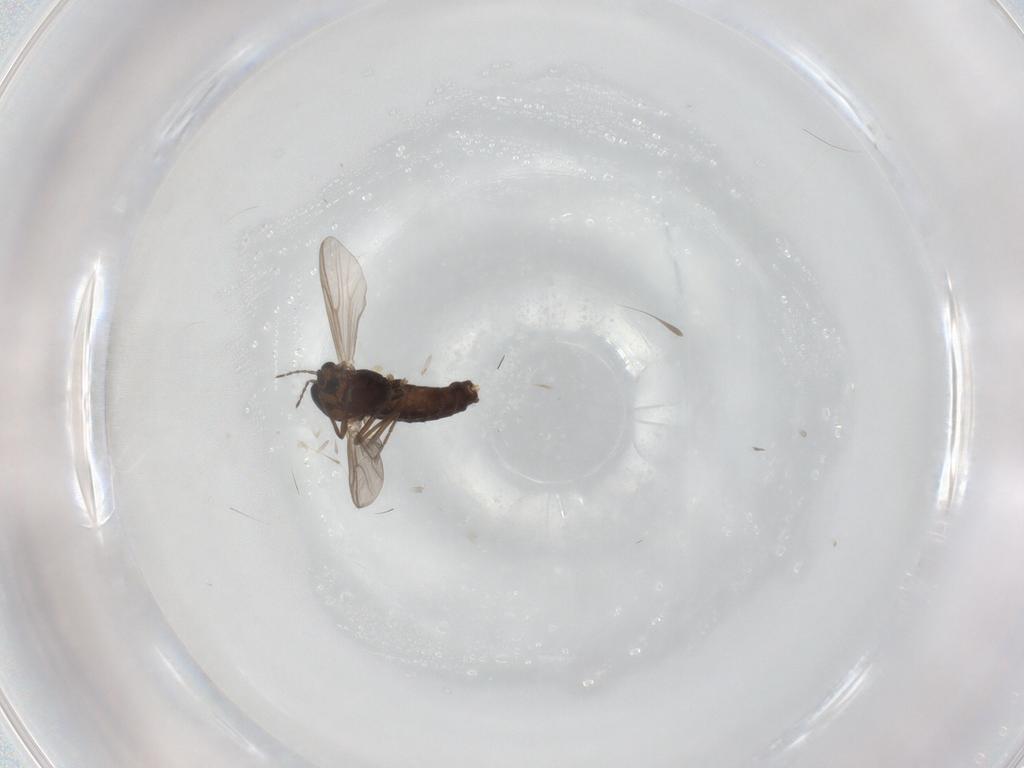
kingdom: Animalia
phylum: Arthropoda
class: Insecta
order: Diptera
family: Chironomidae
